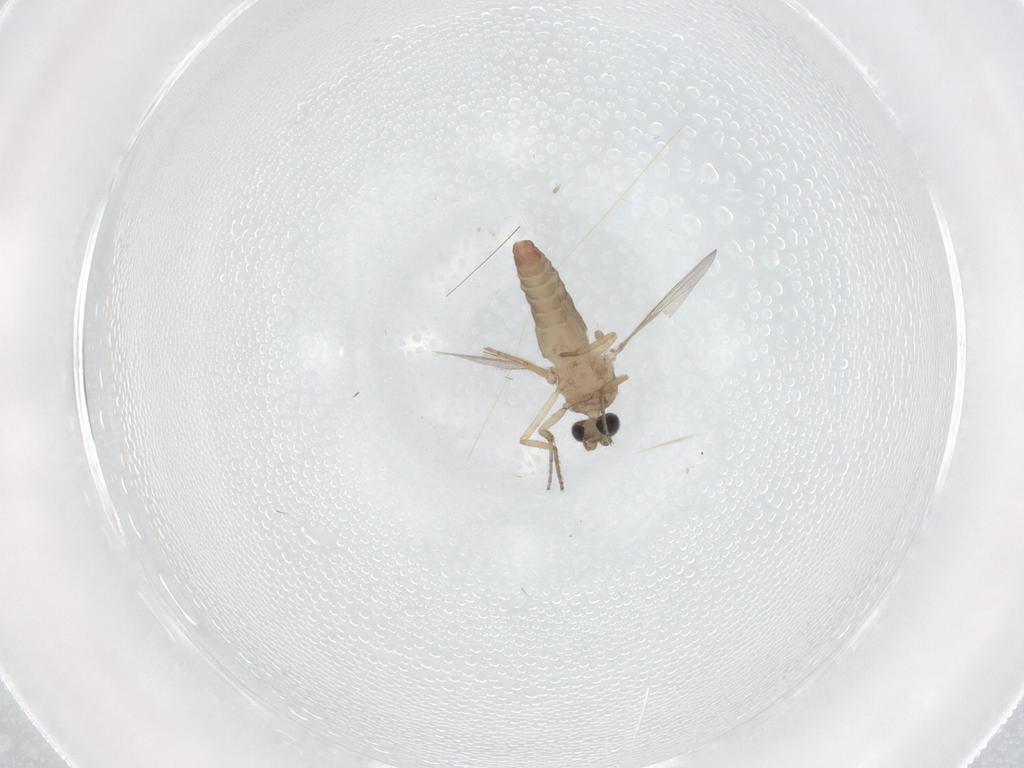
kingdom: Animalia
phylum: Arthropoda
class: Insecta
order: Diptera
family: Ceratopogonidae
